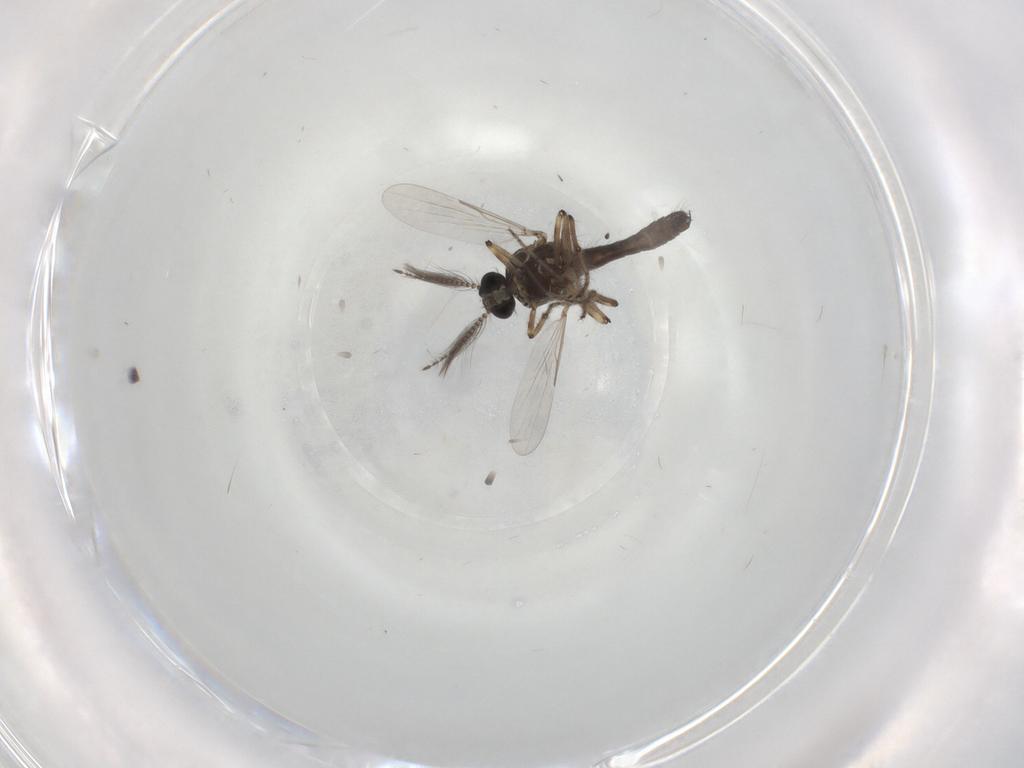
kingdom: Animalia
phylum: Arthropoda
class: Insecta
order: Diptera
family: Ceratopogonidae
